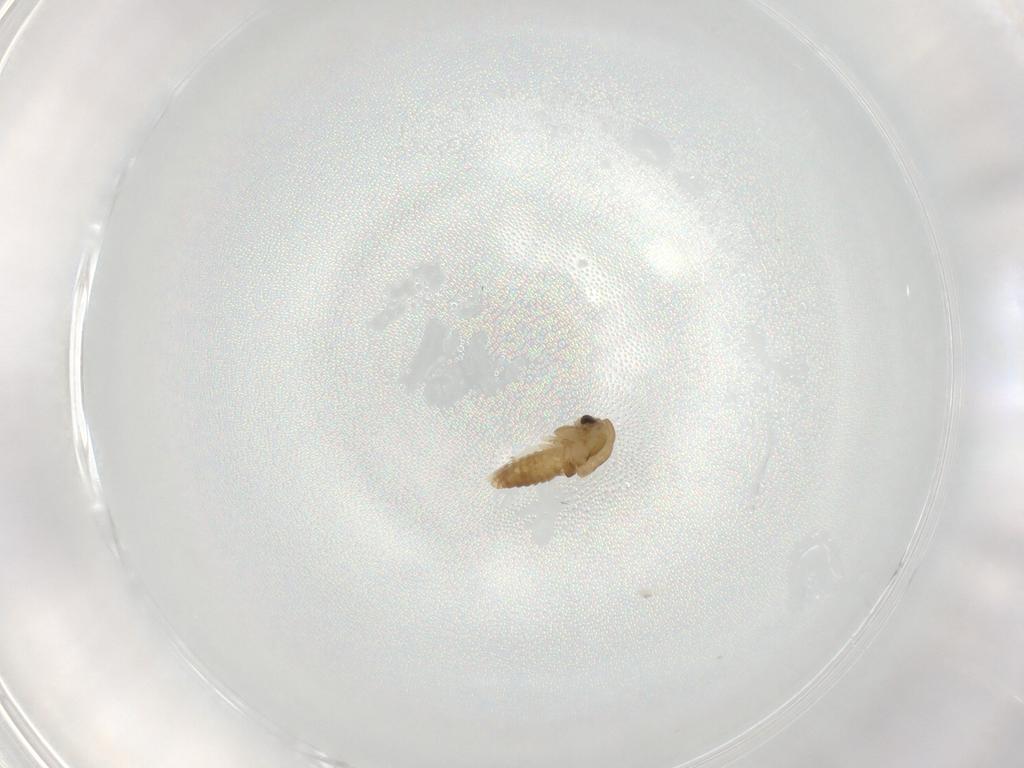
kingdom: Animalia
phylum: Arthropoda
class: Insecta
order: Diptera
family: Chironomidae
